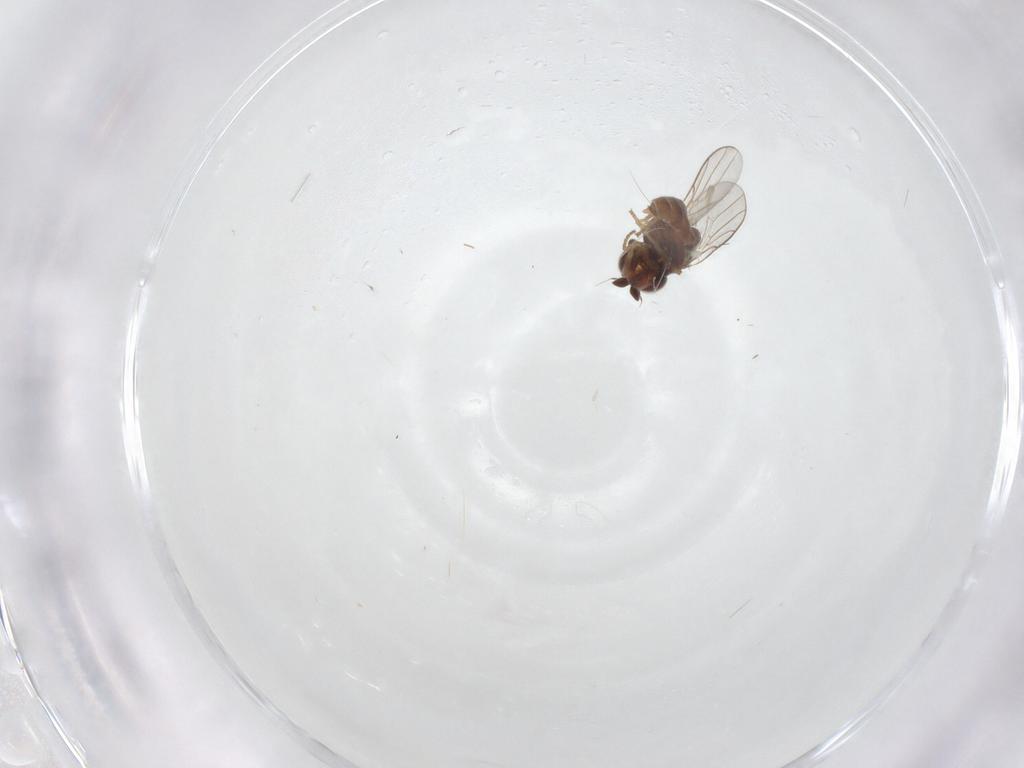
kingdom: Animalia
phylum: Arthropoda
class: Insecta
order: Diptera
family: Chloropidae
